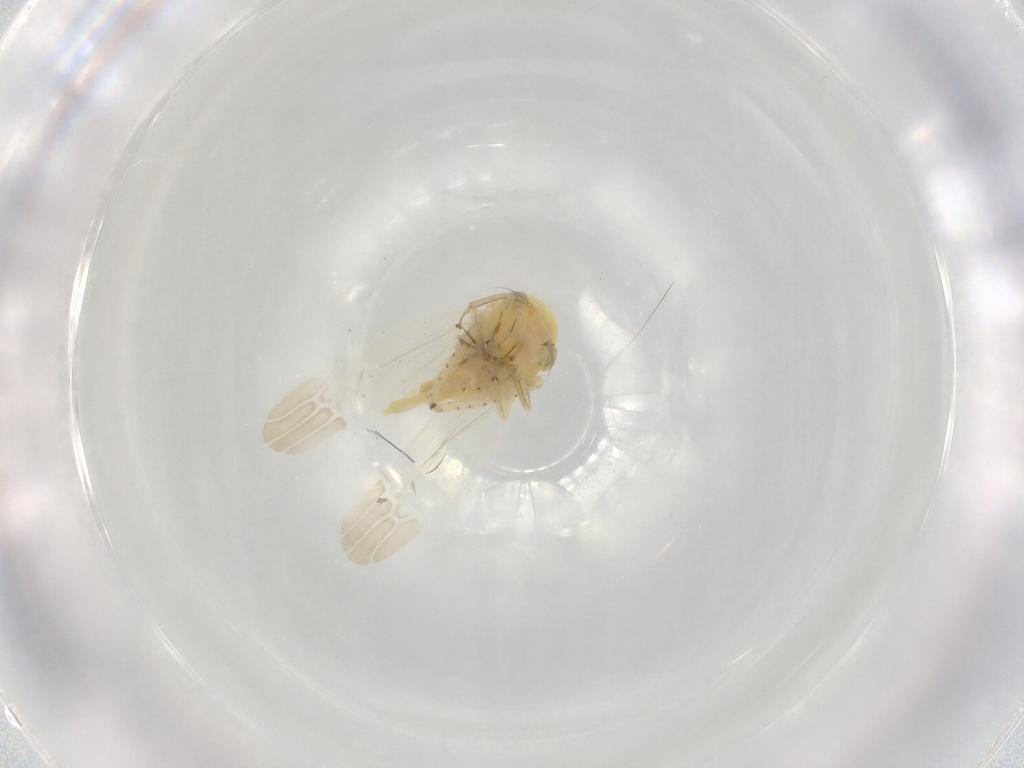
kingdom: Animalia
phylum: Arthropoda
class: Insecta
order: Hemiptera
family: Cicadellidae
